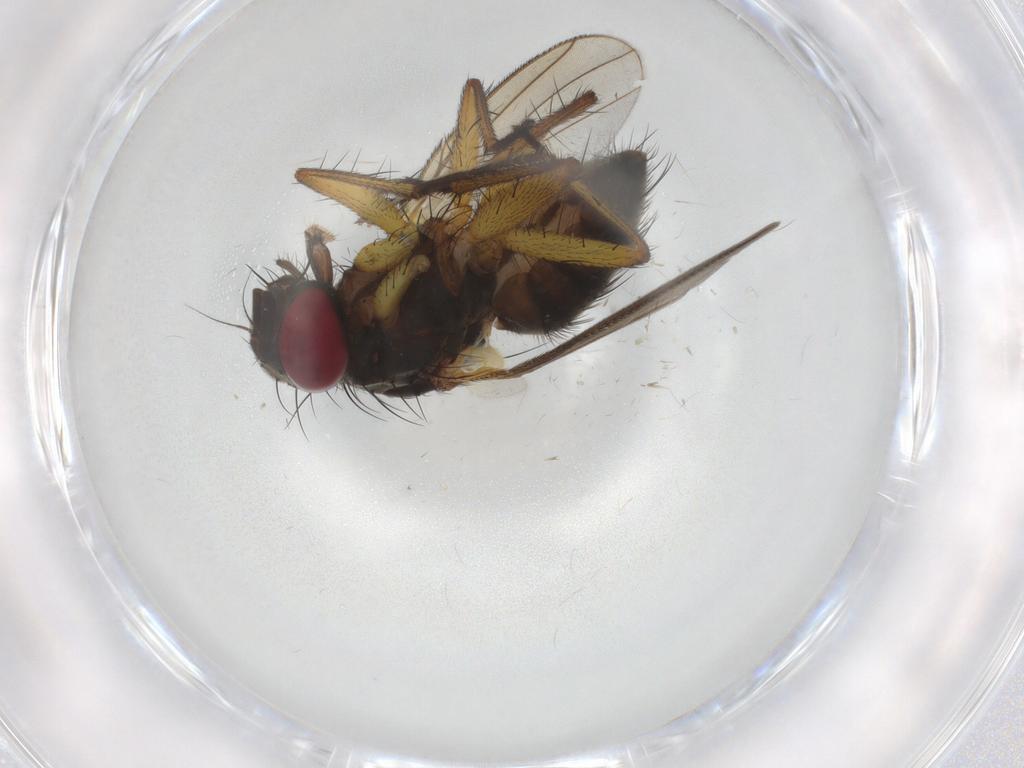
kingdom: Animalia
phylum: Arthropoda
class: Insecta
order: Diptera
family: Muscidae
